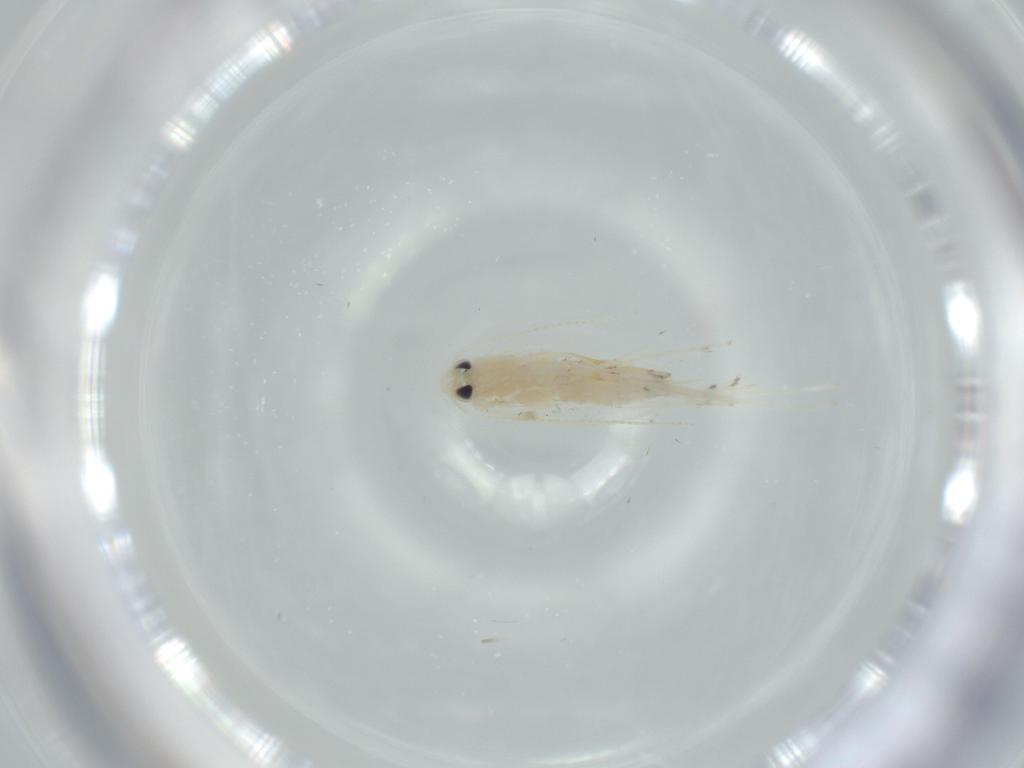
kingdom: Animalia
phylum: Arthropoda
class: Insecta
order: Lepidoptera
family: Gracillariidae
